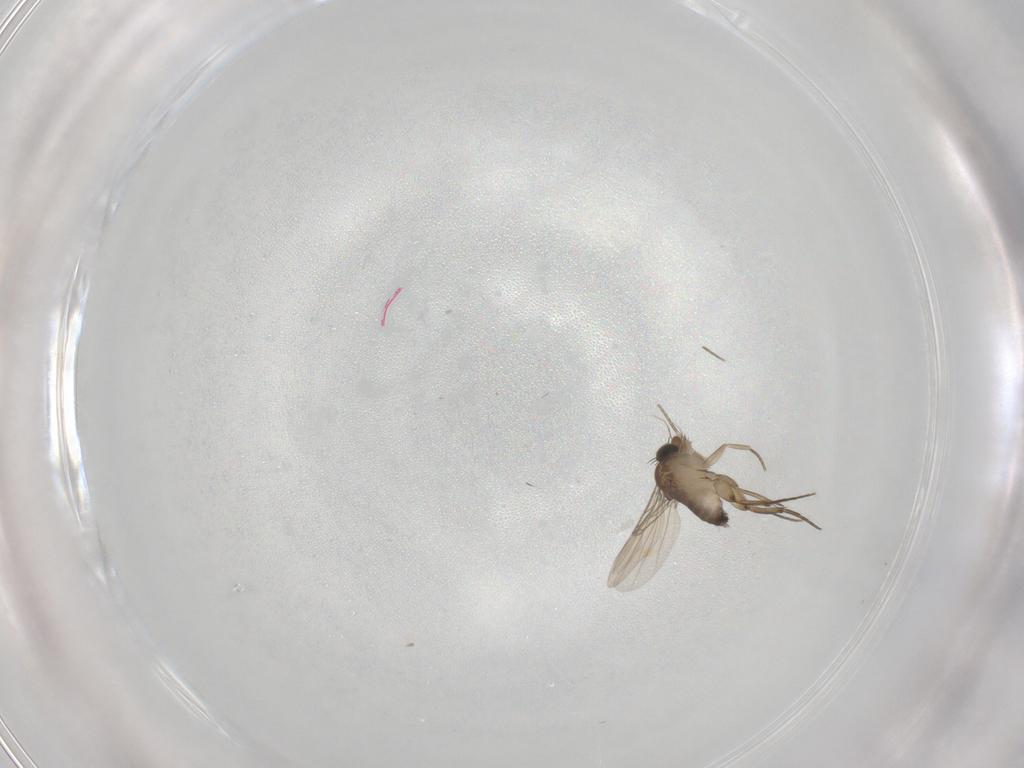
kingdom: Animalia
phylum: Arthropoda
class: Insecta
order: Diptera
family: Phoridae
